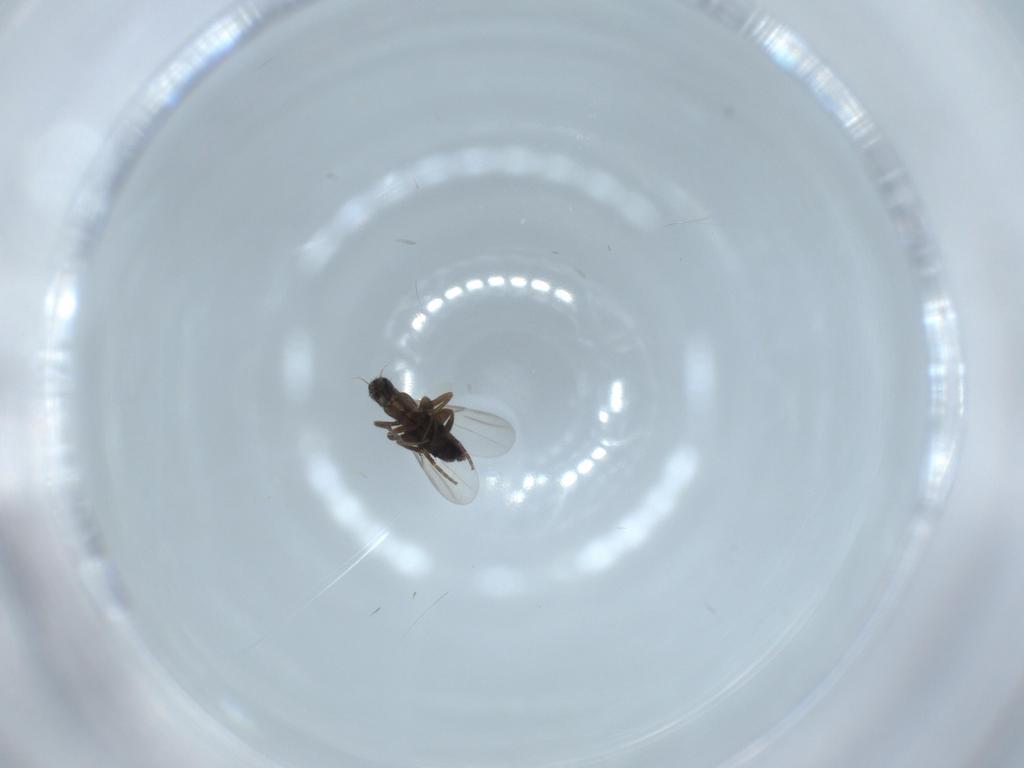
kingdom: Animalia
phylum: Arthropoda
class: Insecta
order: Diptera
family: Phoridae
